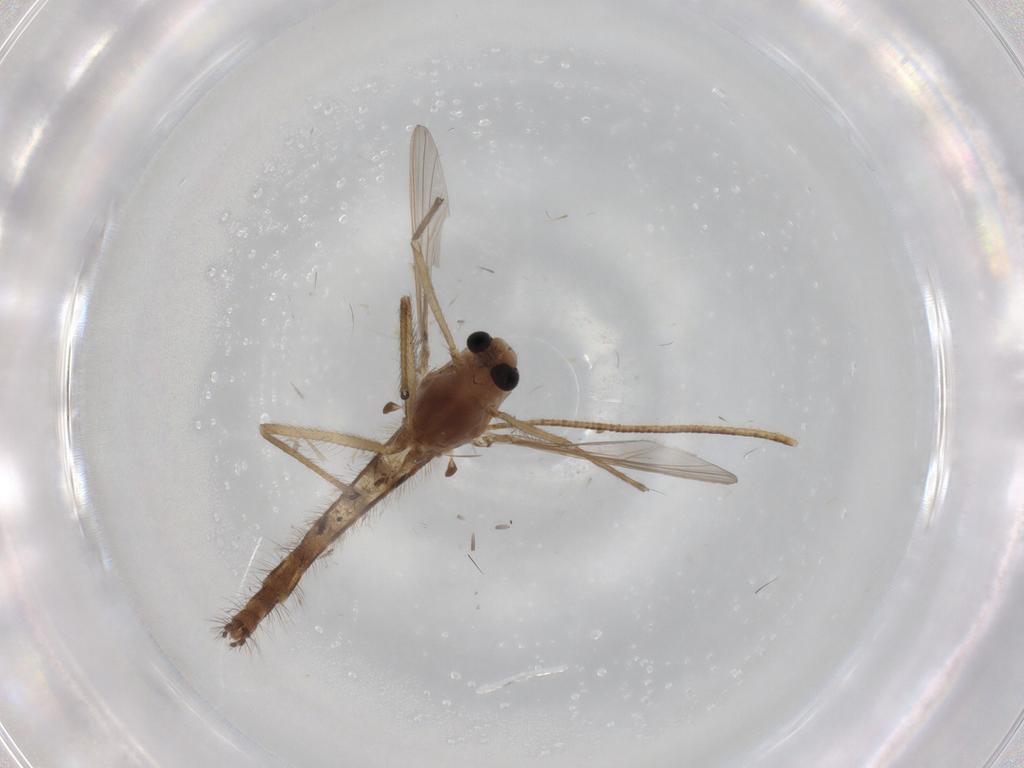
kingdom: Animalia
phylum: Arthropoda
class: Insecta
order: Diptera
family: Chironomidae
